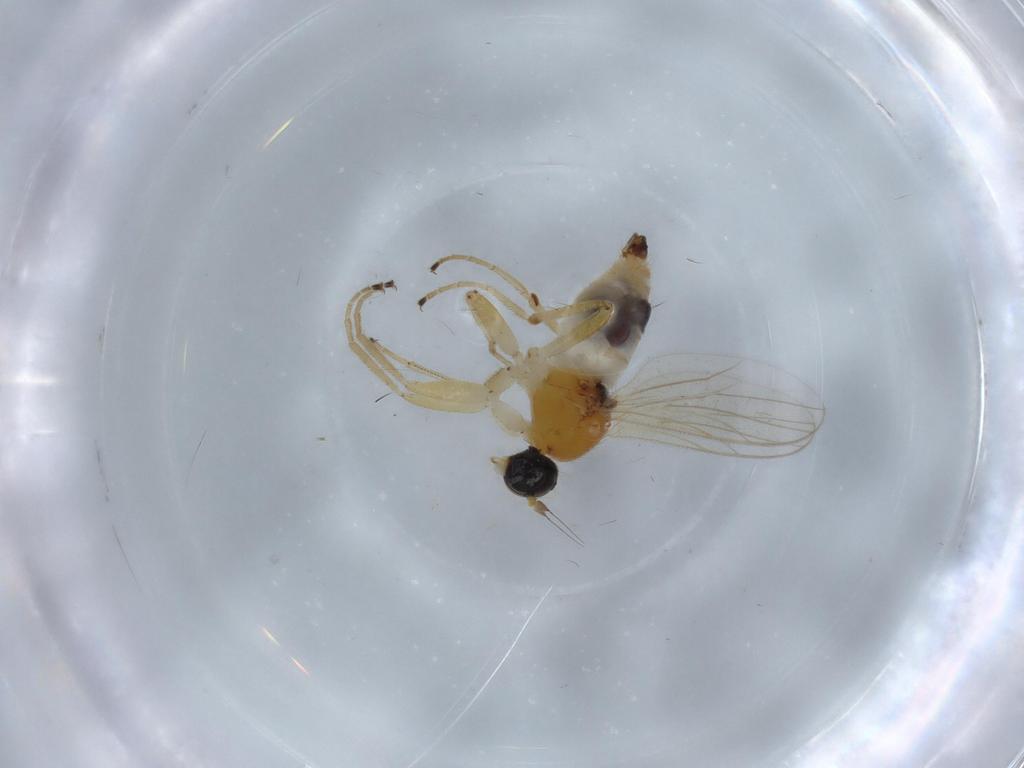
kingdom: Animalia
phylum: Arthropoda
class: Insecta
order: Diptera
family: Hybotidae
